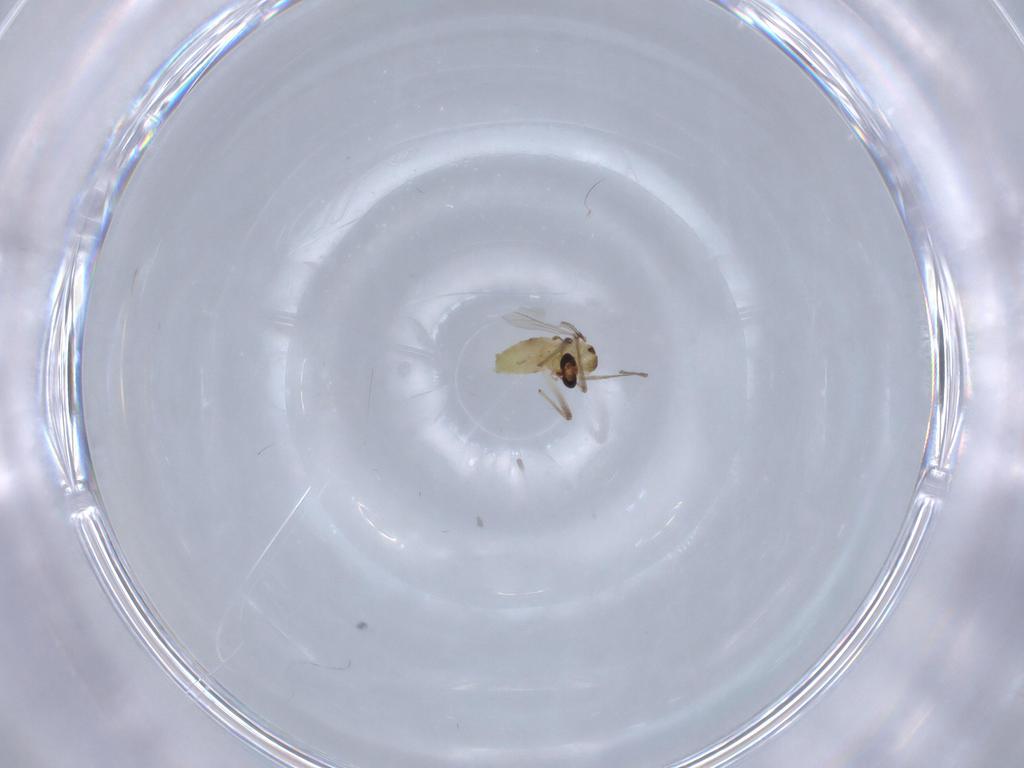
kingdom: Animalia
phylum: Arthropoda
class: Insecta
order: Diptera
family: Chironomidae
